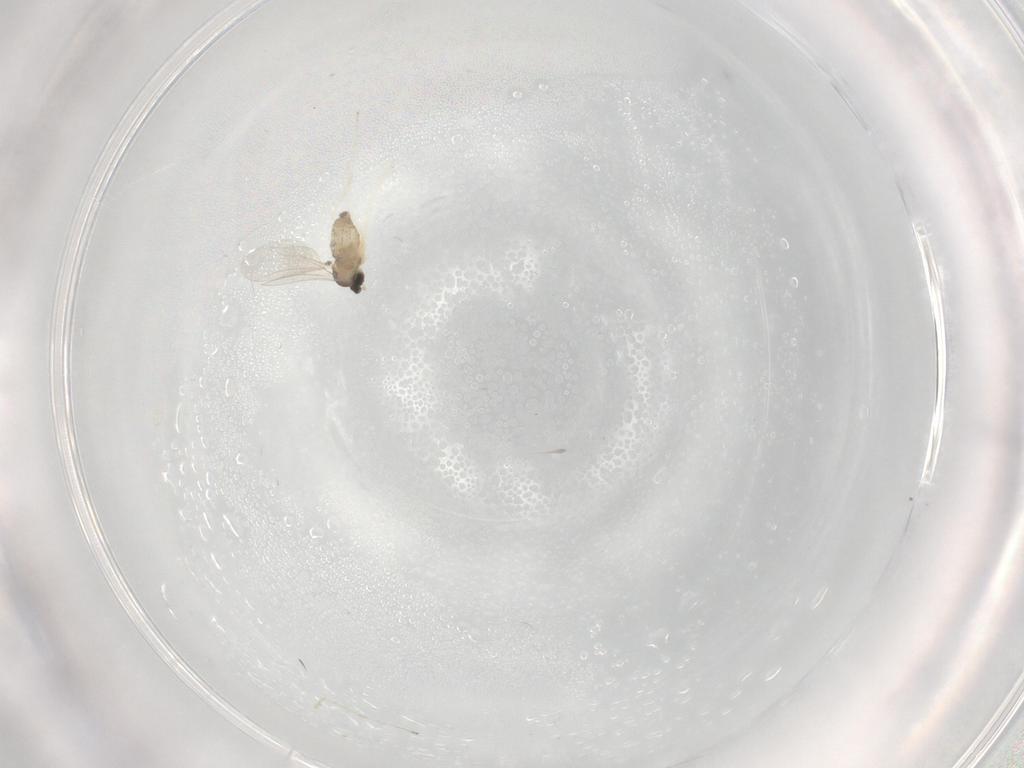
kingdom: Animalia
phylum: Arthropoda
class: Insecta
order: Diptera
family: Cecidomyiidae
